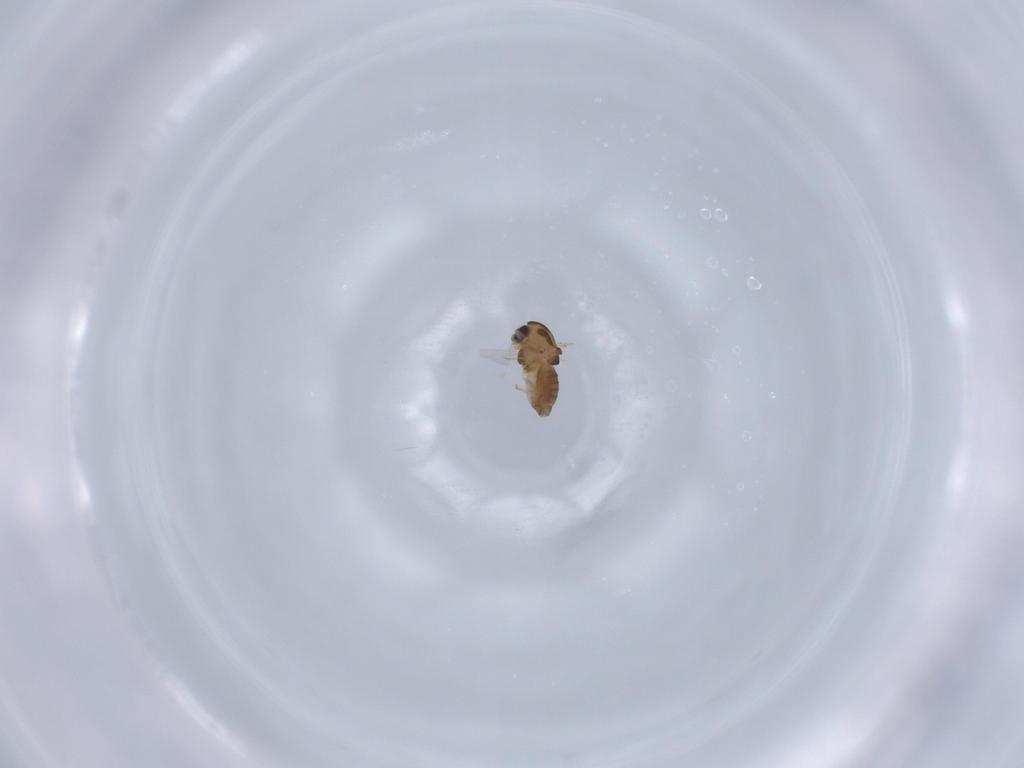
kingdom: Animalia
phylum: Arthropoda
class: Insecta
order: Diptera
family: Chironomidae
